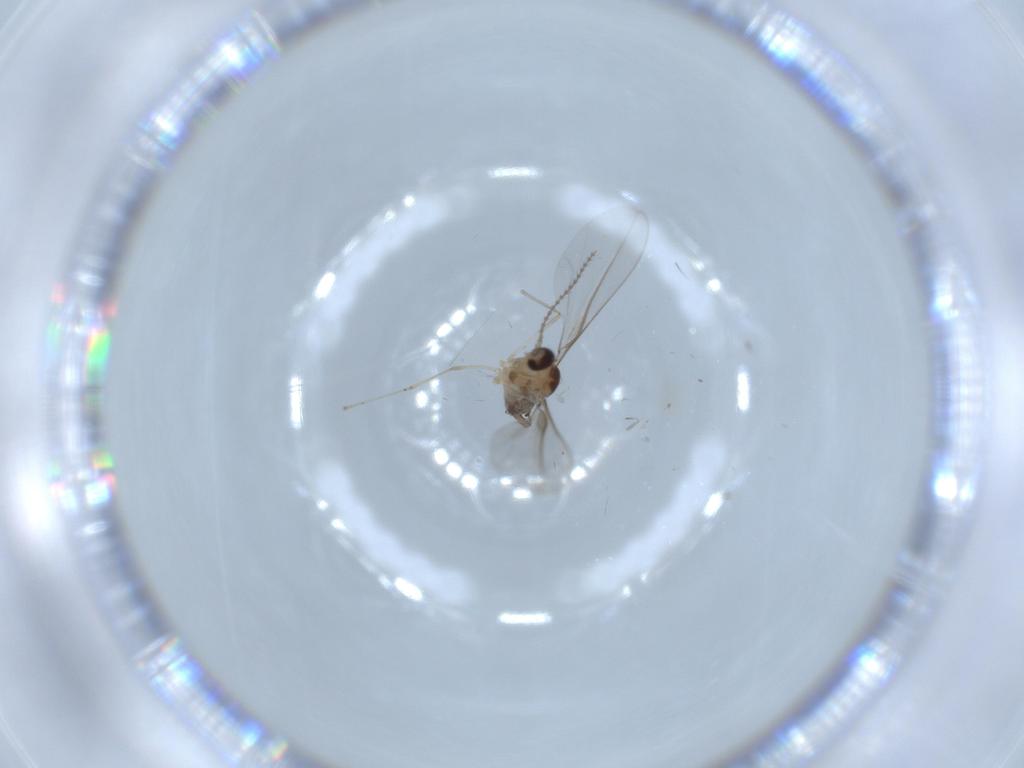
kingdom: Animalia
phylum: Arthropoda
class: Insecta
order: Diptera
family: Cecidomyiidae
